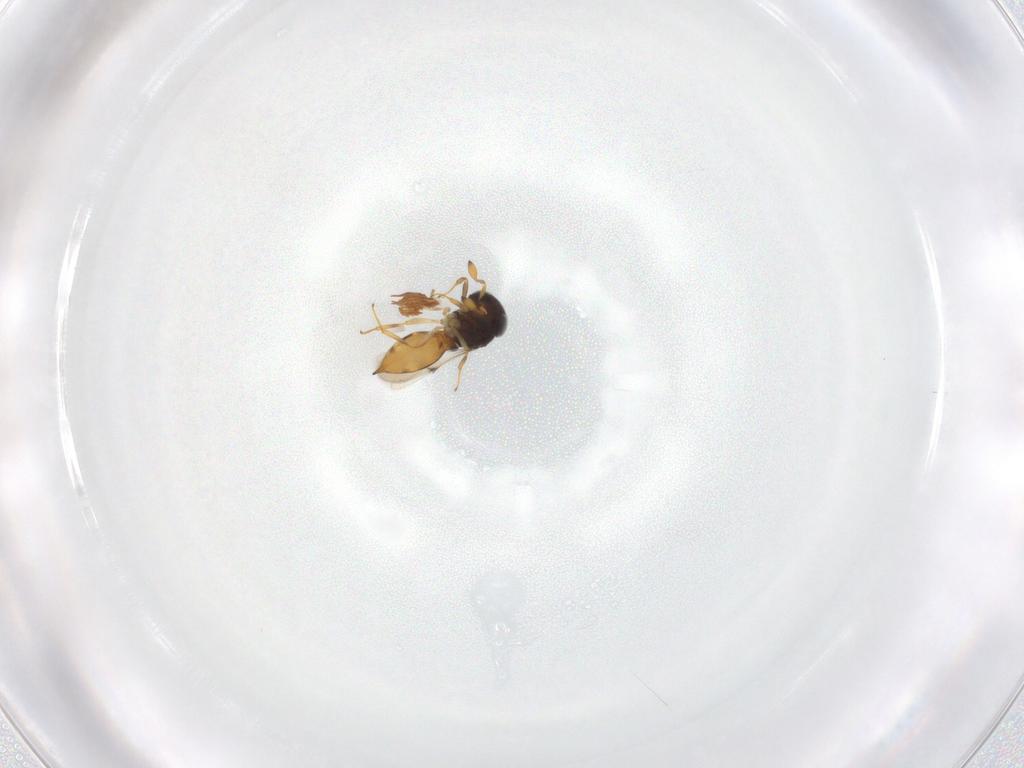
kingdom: Animalia
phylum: Arthropoda
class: Insecta
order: Hymenoptera
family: Scelionidae
